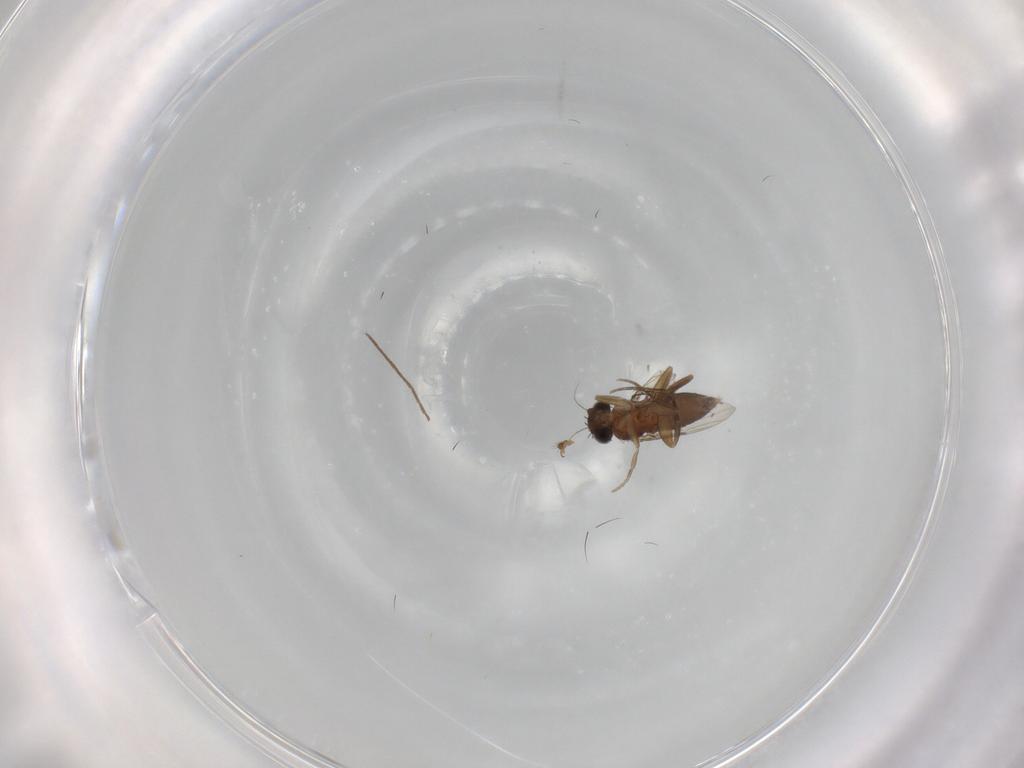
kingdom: Animalia
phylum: Arthropoda
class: Insecta
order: Diptera
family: Phoridae
